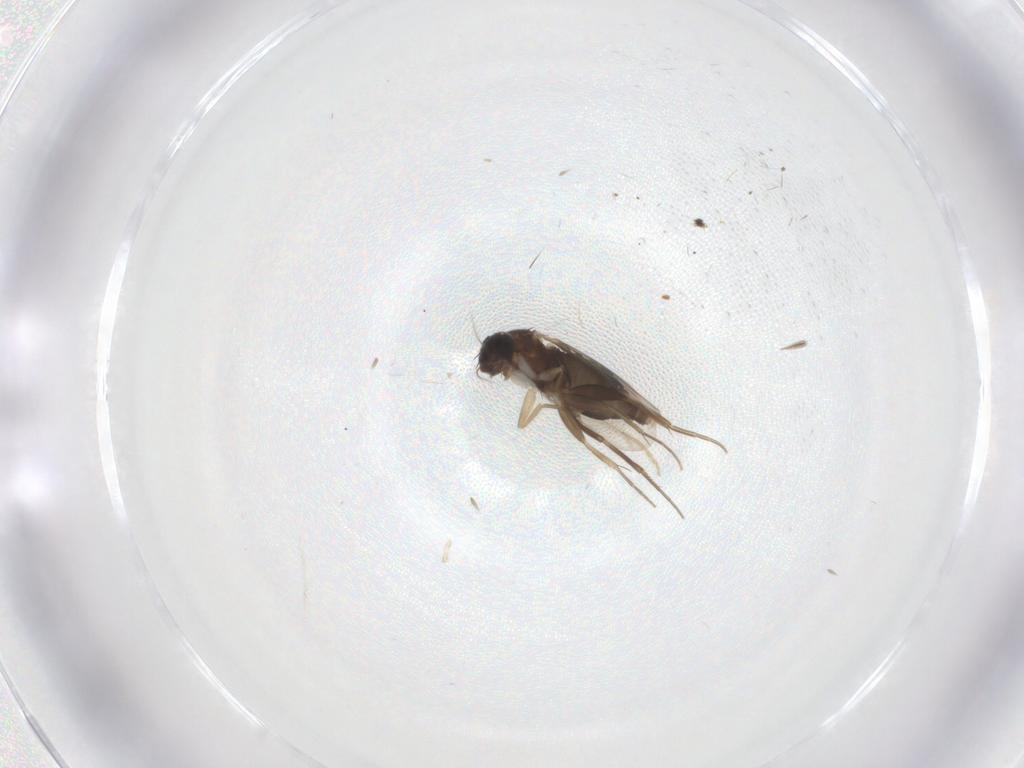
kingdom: Animalia
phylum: Arthropoda
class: Insecta
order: Diptera
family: Phoridae
